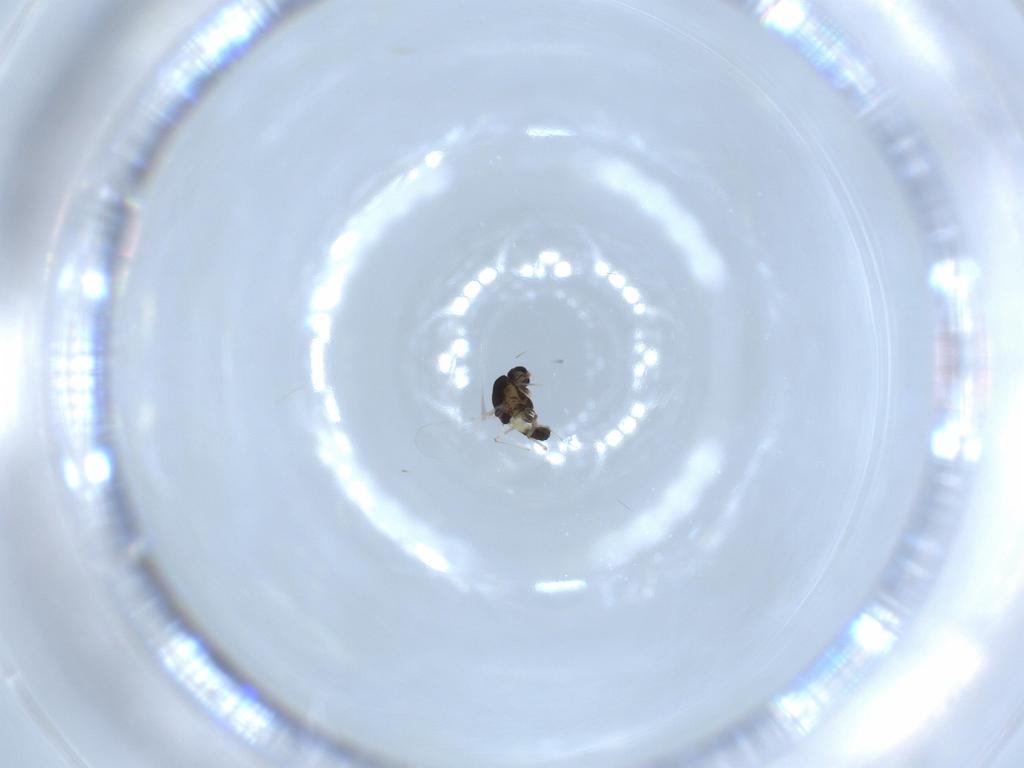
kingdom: Animalia
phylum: Arthropoda
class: Insecta
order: Diptera
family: Chironomidae
